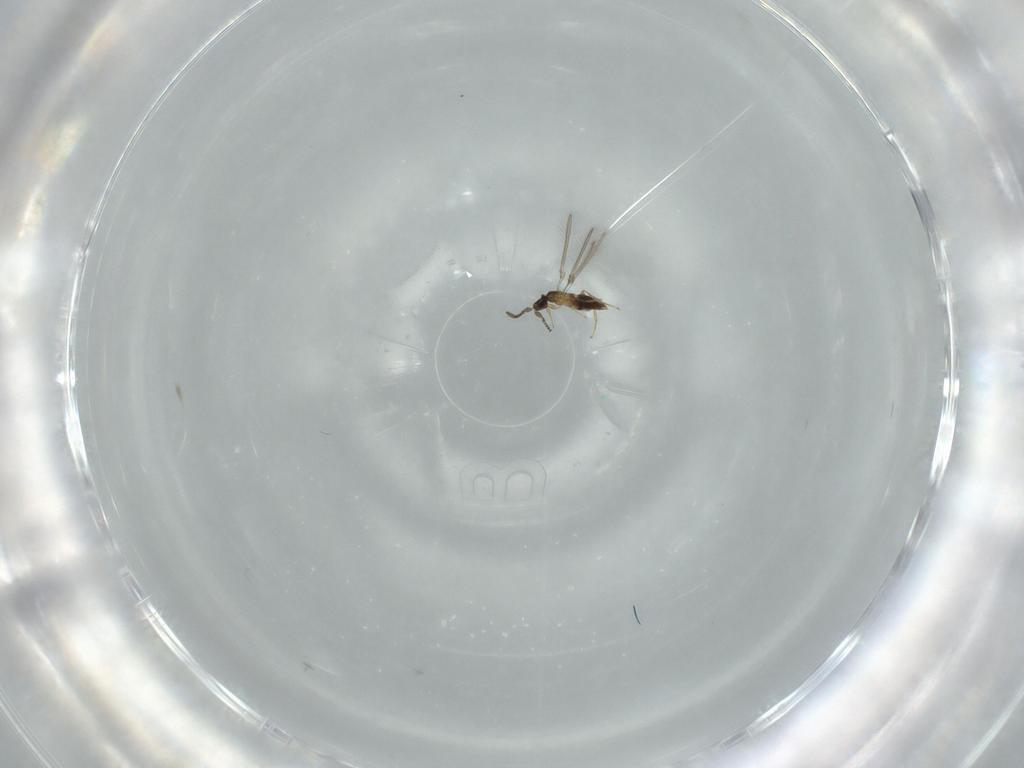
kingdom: Animalia
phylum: Arthropoda
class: Insecta
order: Hymenoptera
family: Mymaridae
